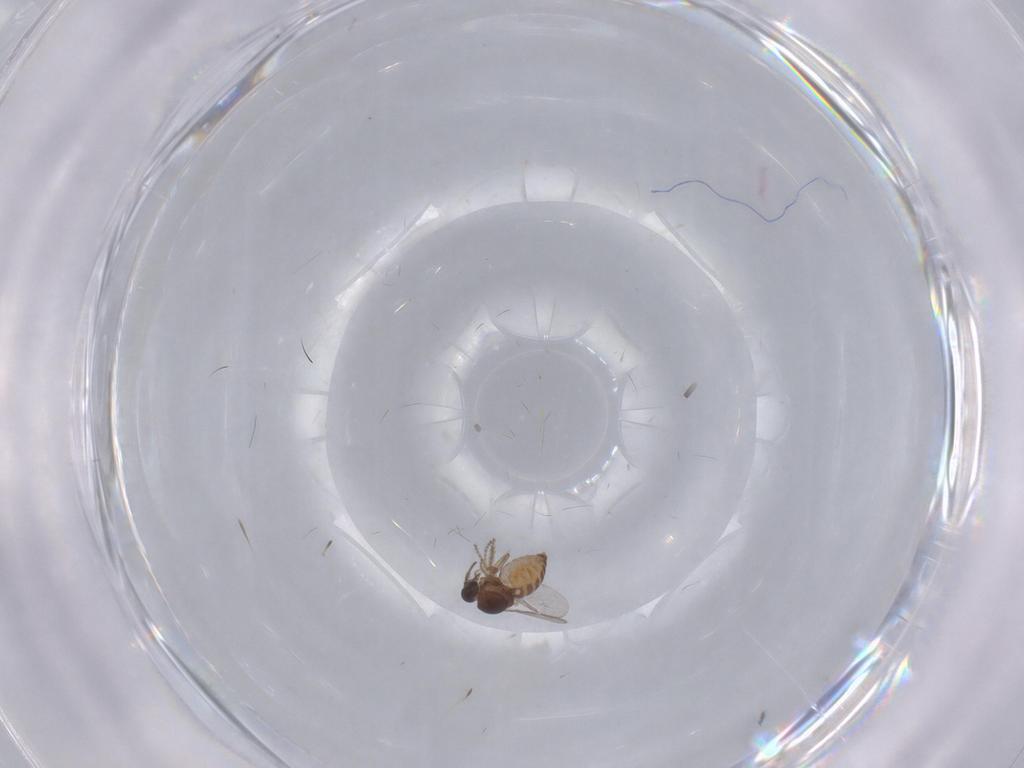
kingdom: Animalia
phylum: Arthropoda
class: Insecta
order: Diptera
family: Ceratopogonidae
